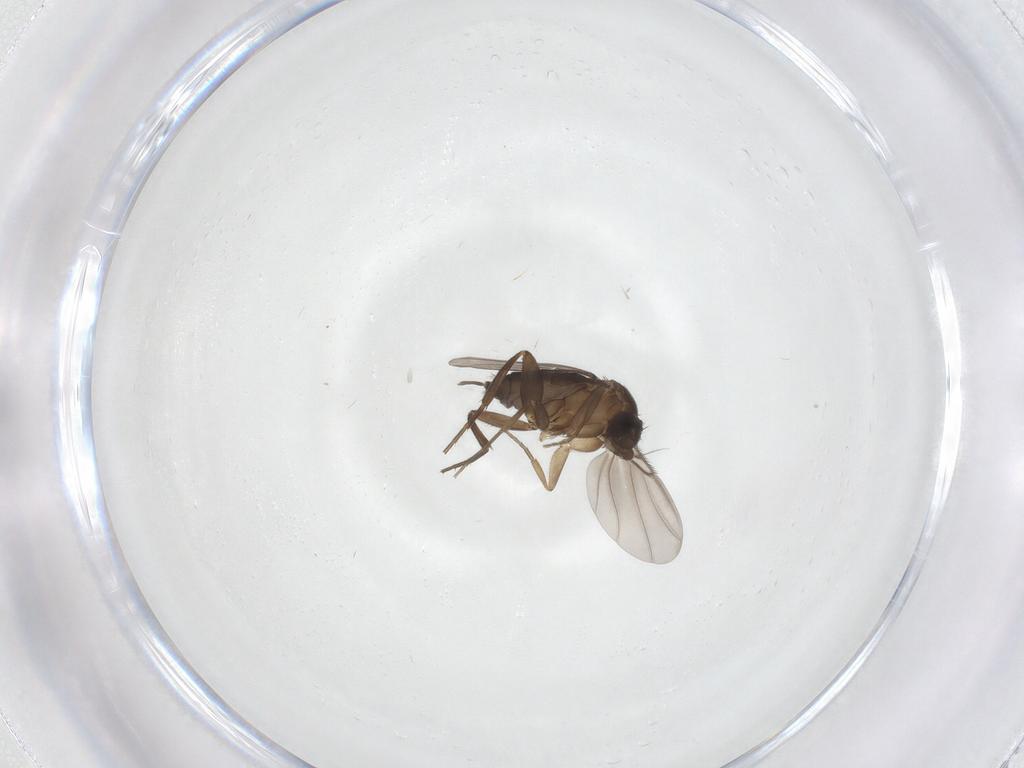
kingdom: Animalia
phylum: Arthropoda
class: Insecta
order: Diptera
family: Phoridae
